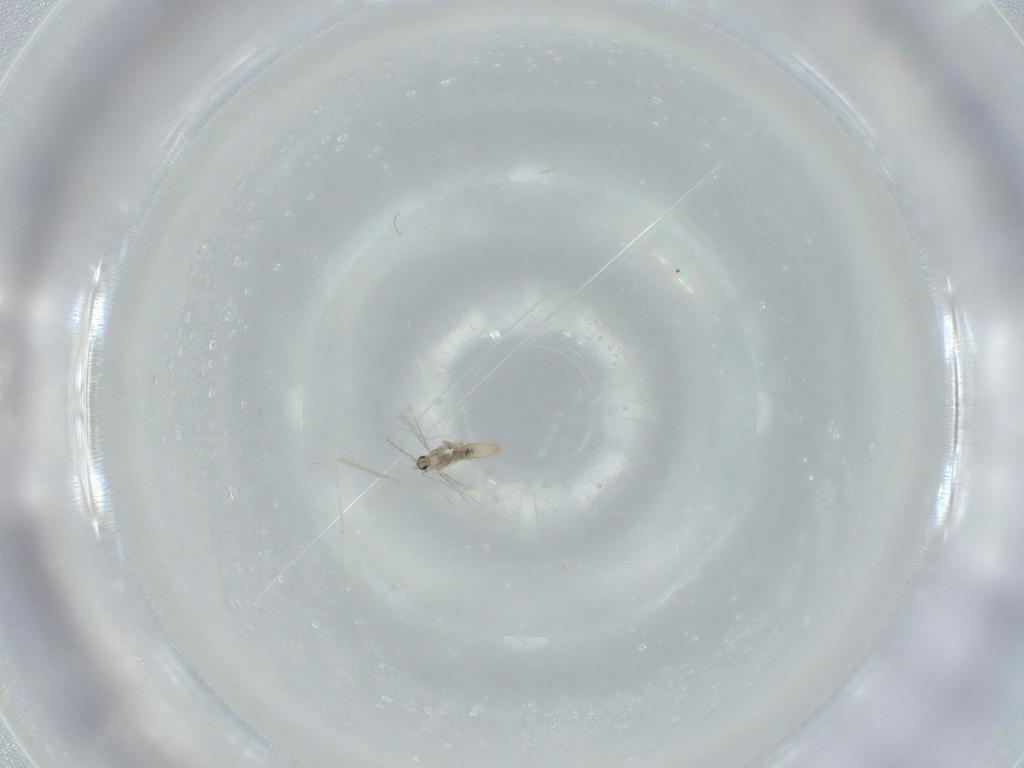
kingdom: Animalia
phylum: Arthropoda
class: Insecta
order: Diptera
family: Cecidomyiidae
